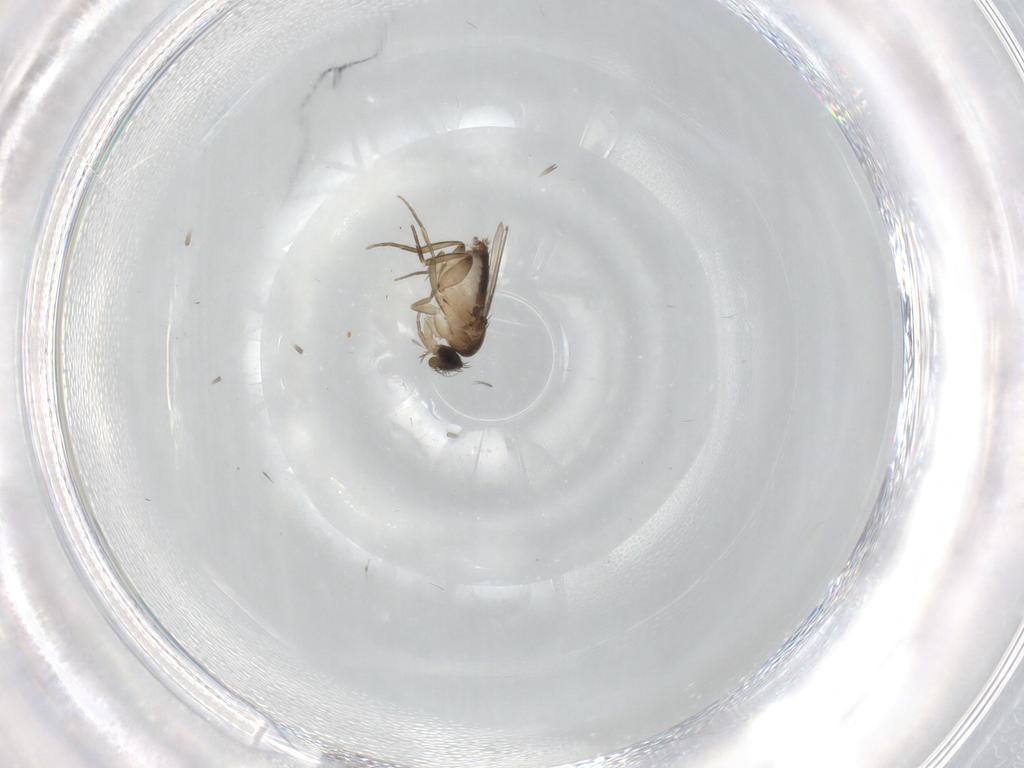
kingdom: Animalia
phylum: Arthropoda
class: Insecta
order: Diptera
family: Phoridae
